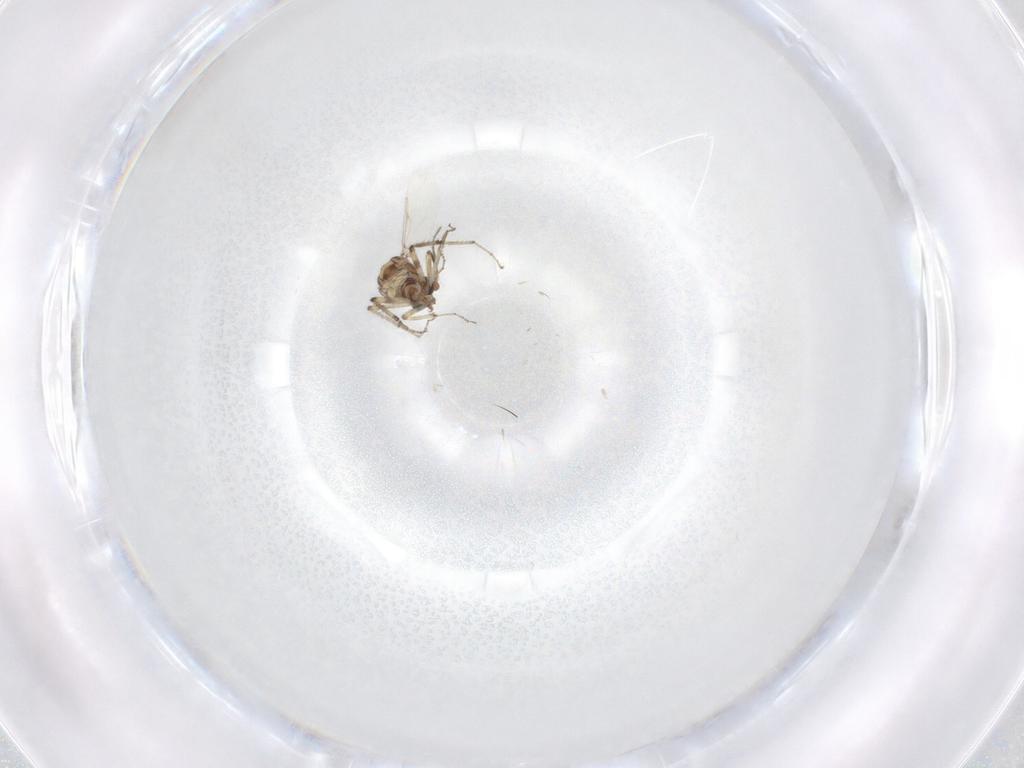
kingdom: Animalia
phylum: Arthropoda
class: Insecta
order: Diptera
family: Ceratopogonidae
